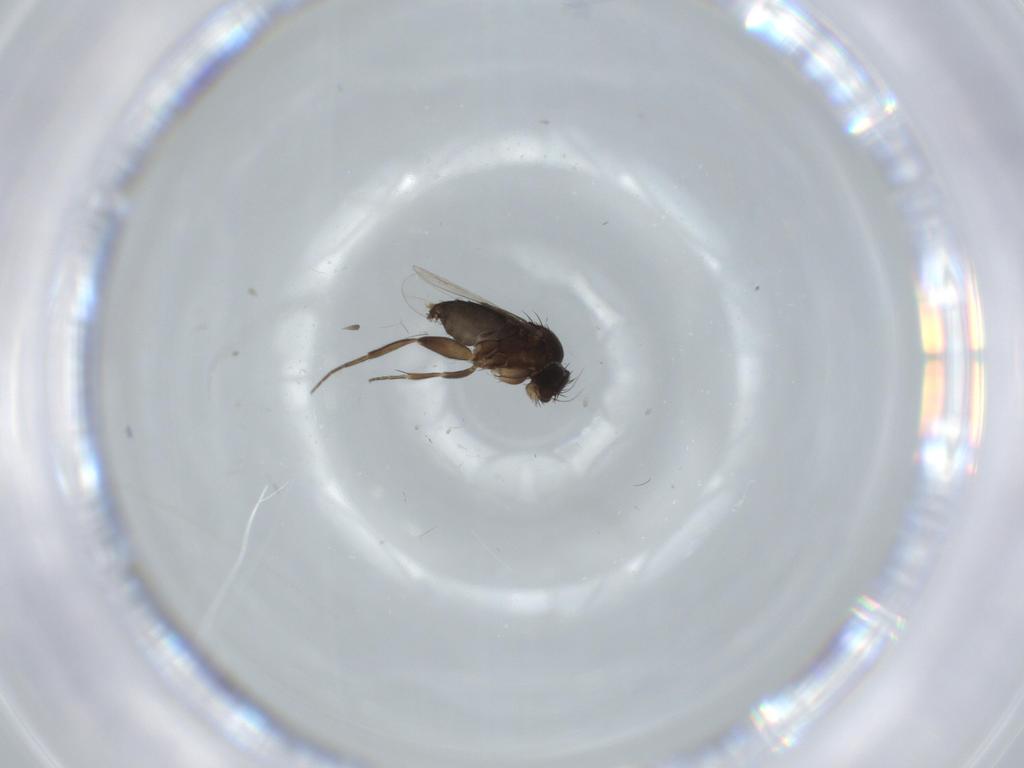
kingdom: Animalia
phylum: Arthropoda
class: Insecta
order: Diptera
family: Phoridae
